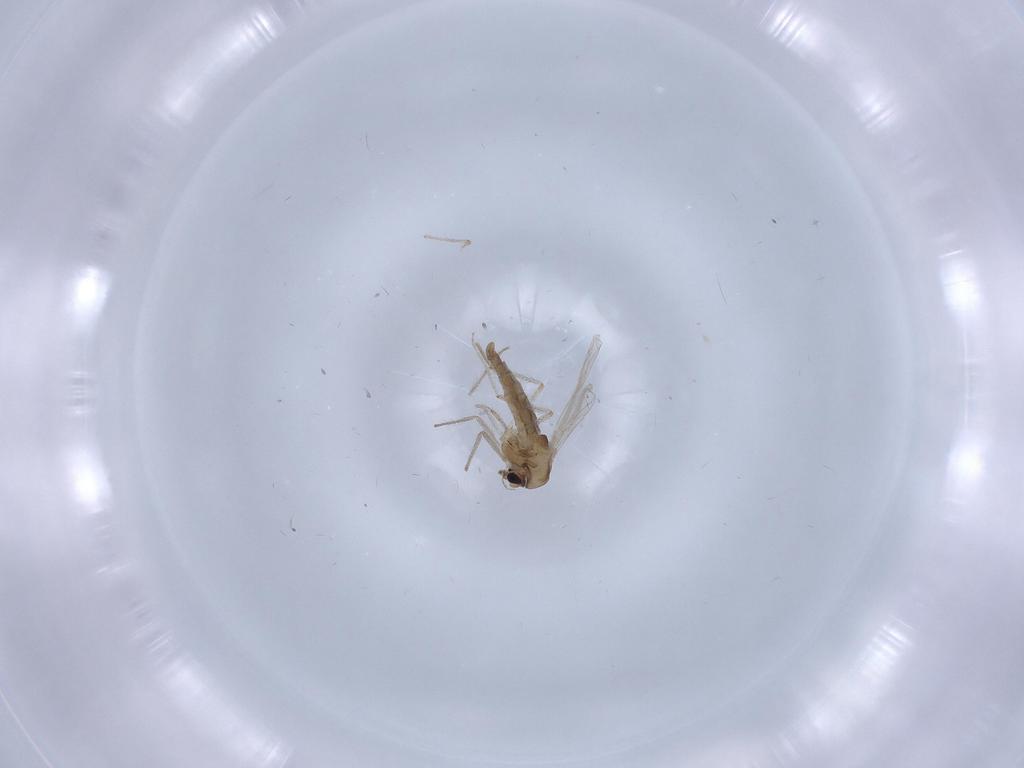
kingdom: Animalia
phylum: Arthropoda
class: Insecta
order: Diptera
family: Chironomidae
